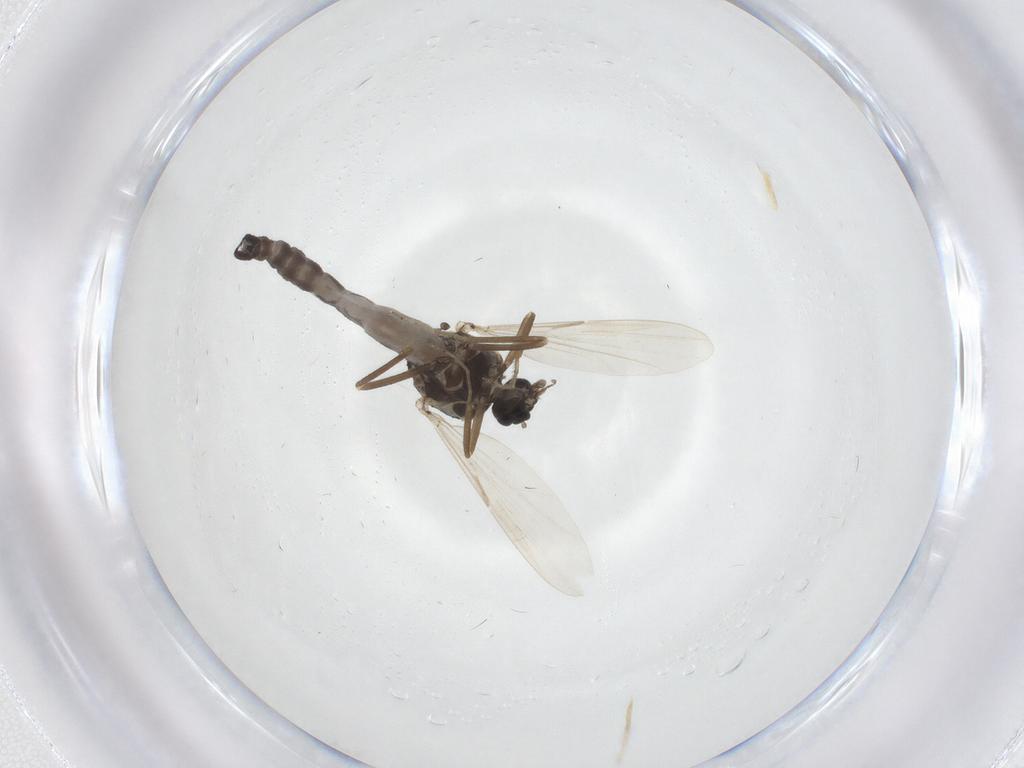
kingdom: Animalia
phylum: Arthropoda
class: Insecta
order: Diptera
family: Ceratopogonidae
